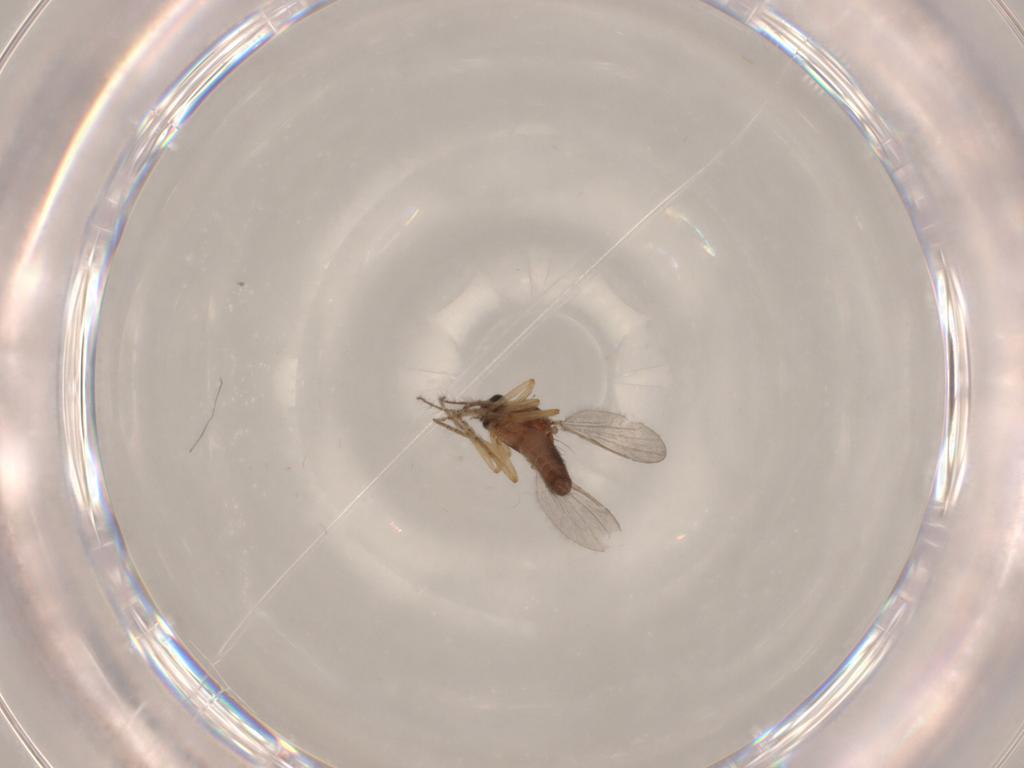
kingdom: Animalia
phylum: Arthropoda
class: Insecta
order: Diptera
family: Ceratopogonidae
